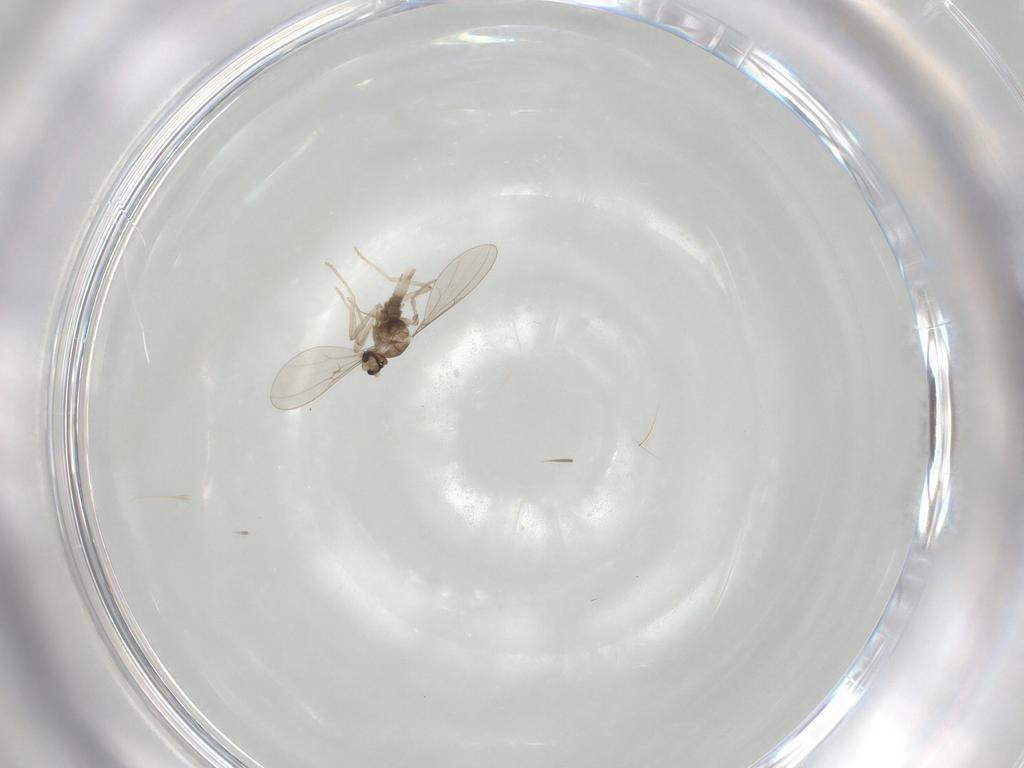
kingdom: Animalia
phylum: Arthropoda
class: Insecta
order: Diptera
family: Cecidomyiidae
